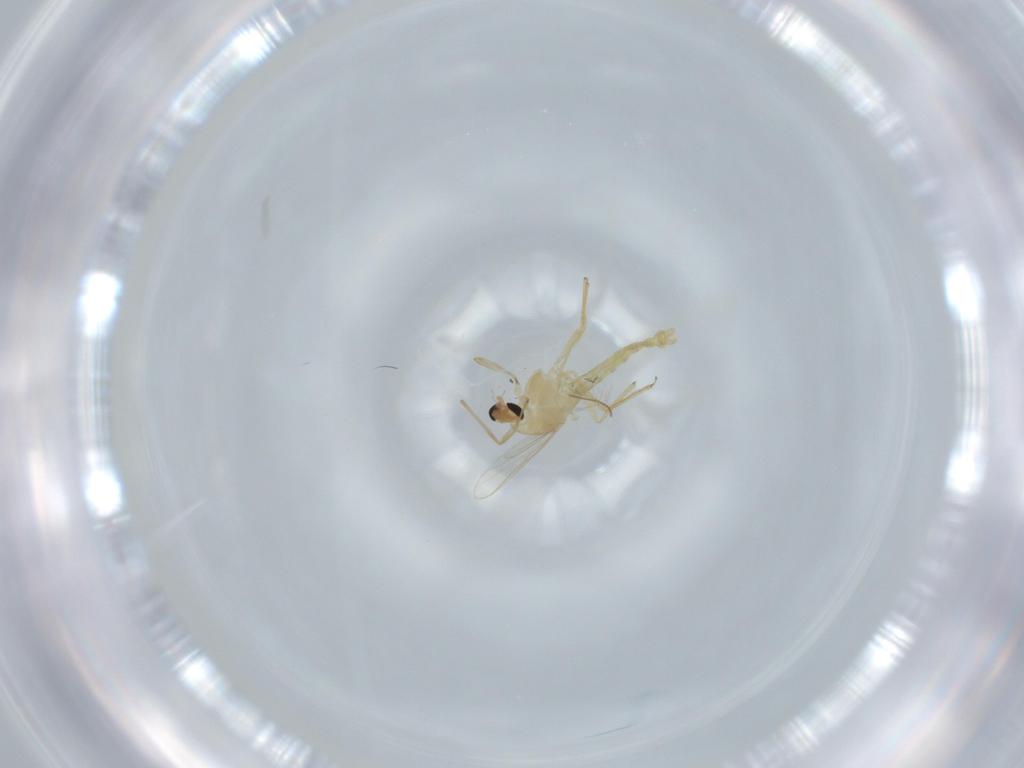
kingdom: Animalia
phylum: Arthropoda
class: Insecta
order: Diptera
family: Chironomidae
